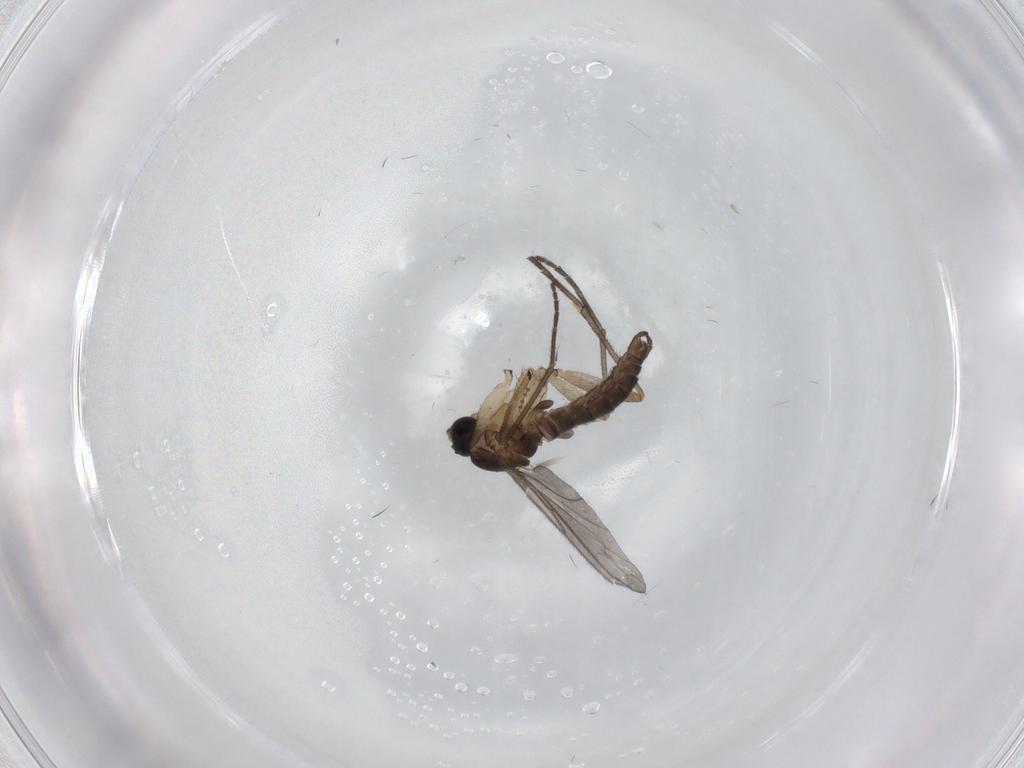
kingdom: Animalia
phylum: Arthropoda
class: Insecta
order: Diptera
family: Sciaridae
